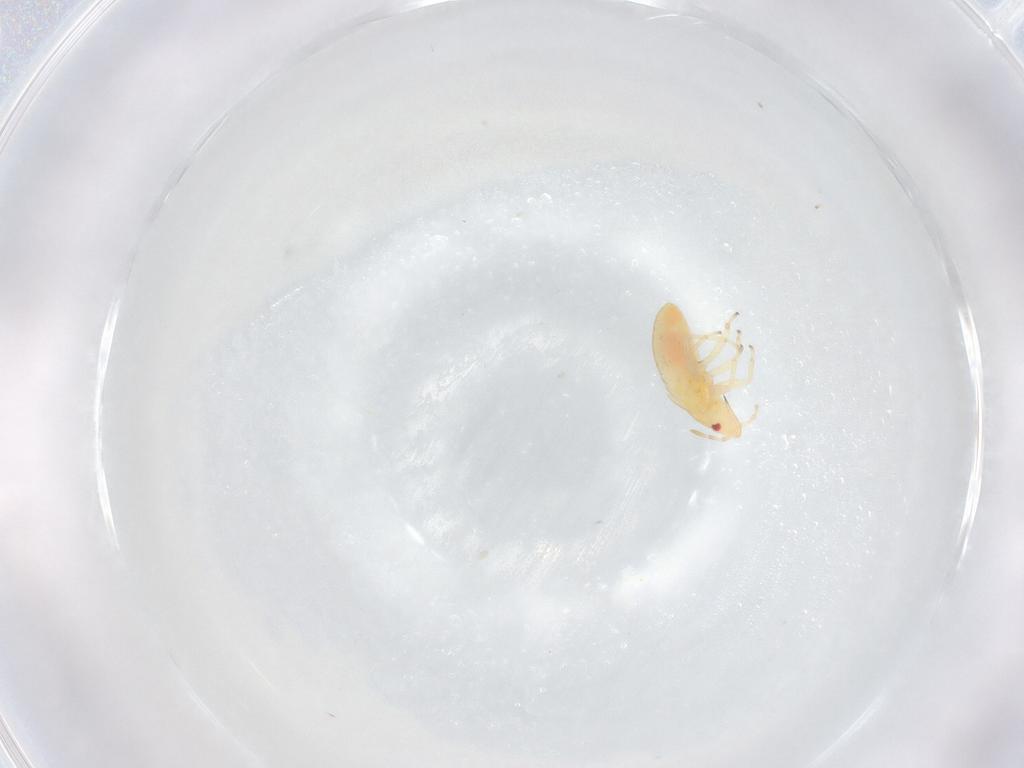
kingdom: Animalia
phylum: Arthropoda
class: Insecta
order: Hemiptera
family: Anthocoridae
